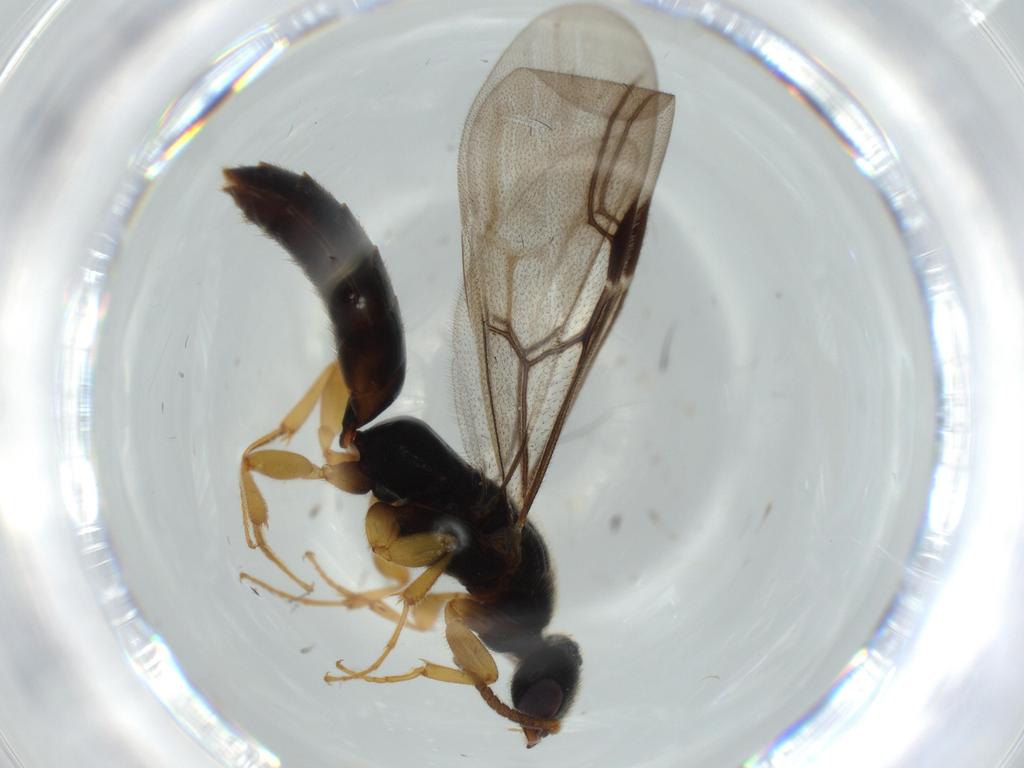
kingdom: Animalia
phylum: Arthropoda
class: Insecta
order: Hymenoptera
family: Bethylidae
